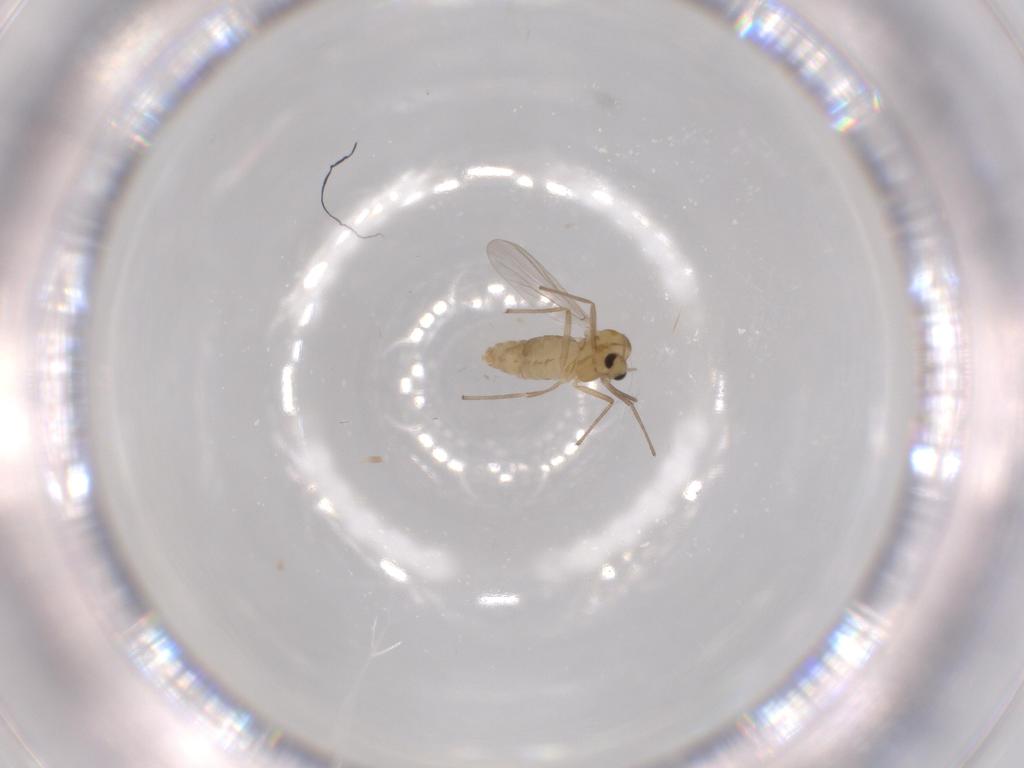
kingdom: Animalia
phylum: Arthropoda
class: Insecta
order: Diptera
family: Chironomidae
